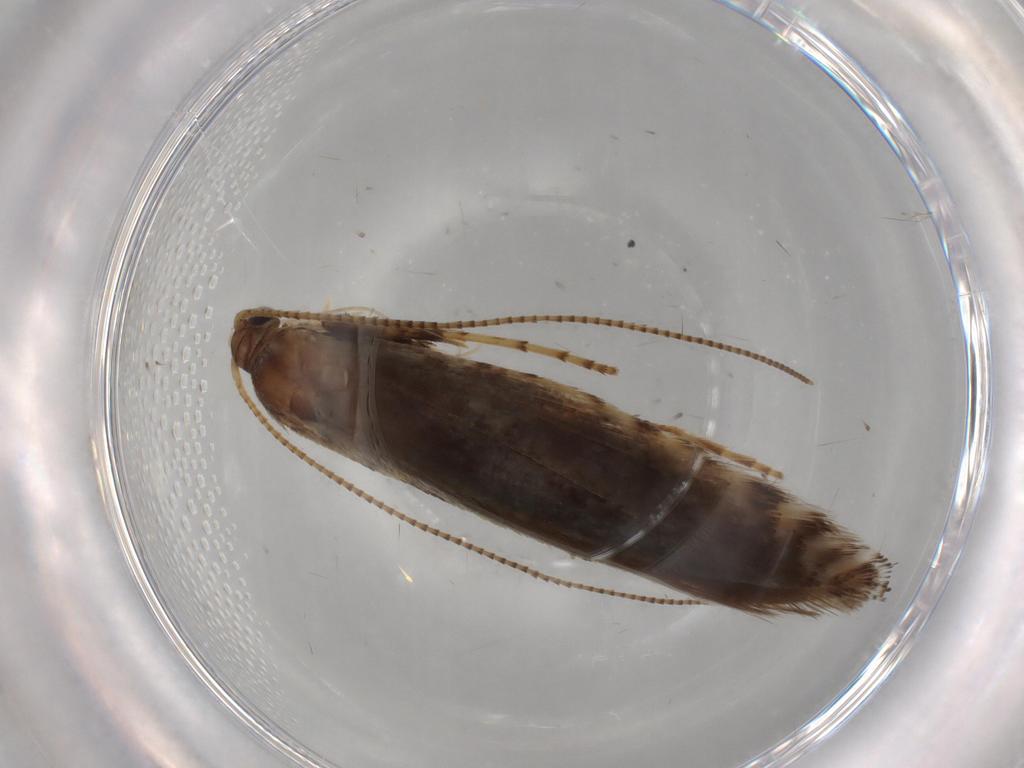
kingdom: Animalia
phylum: Arthropoda
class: Insecta
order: Lepidoptera
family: Gracillariidae
